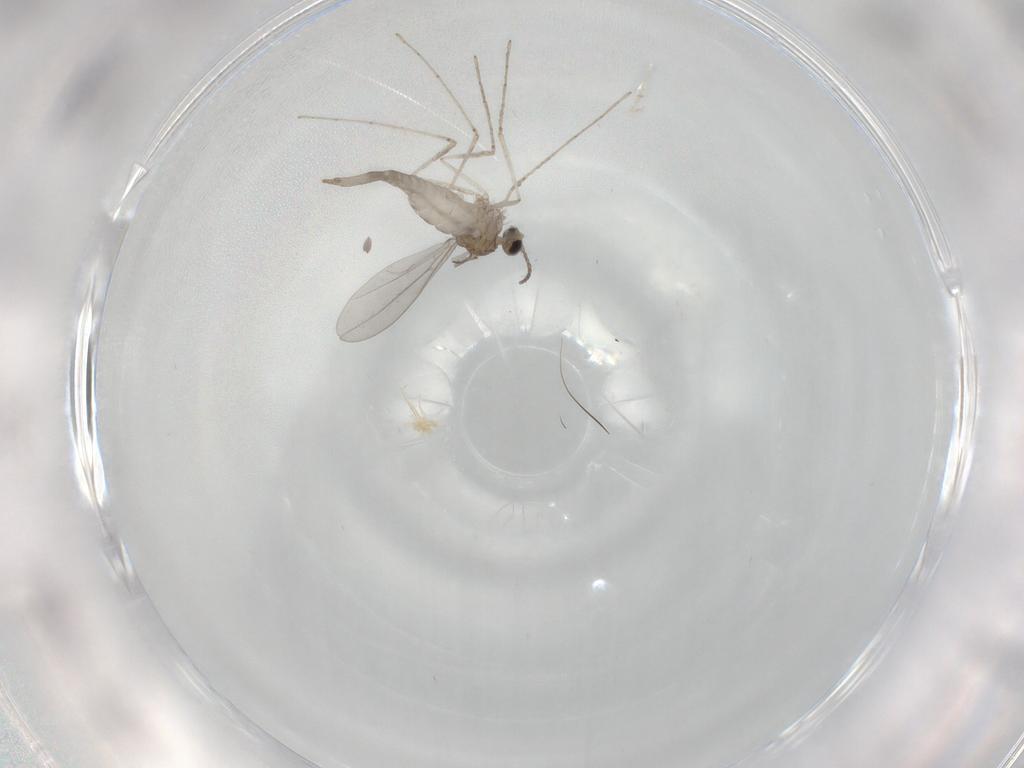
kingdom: Animalia
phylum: Arthropoda
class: Insecta
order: Diptera
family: Cecidomyiidae
